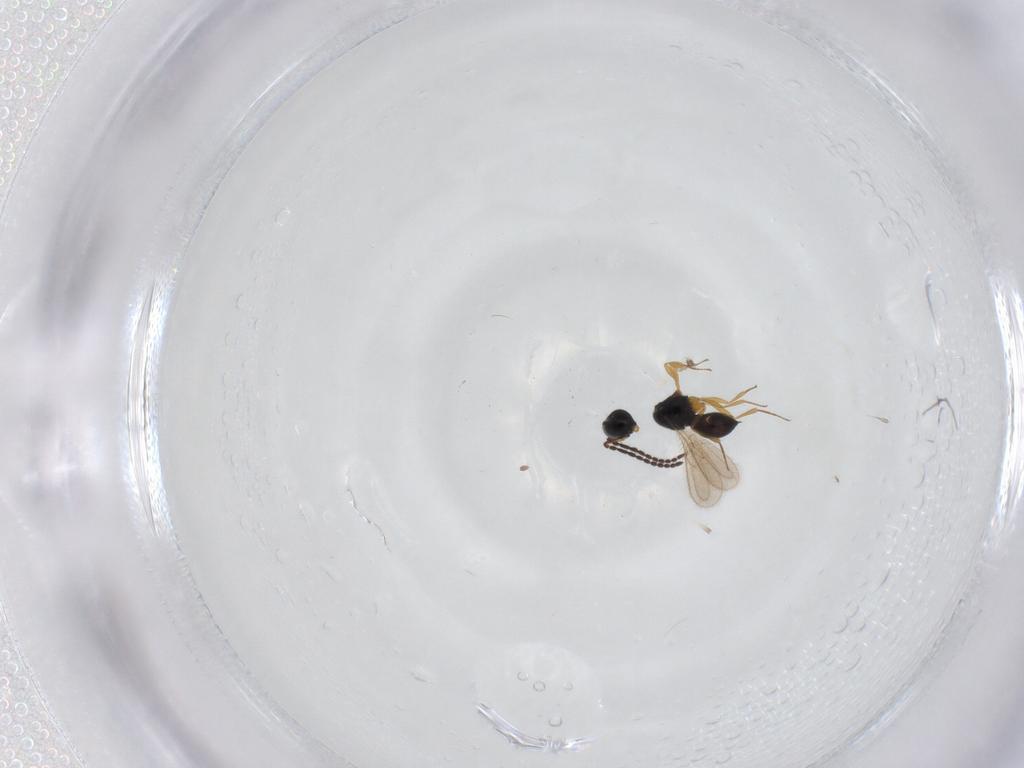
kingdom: Animalia
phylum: Arthropoda
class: Insecta
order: Hymenoptera
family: Scelionidae
